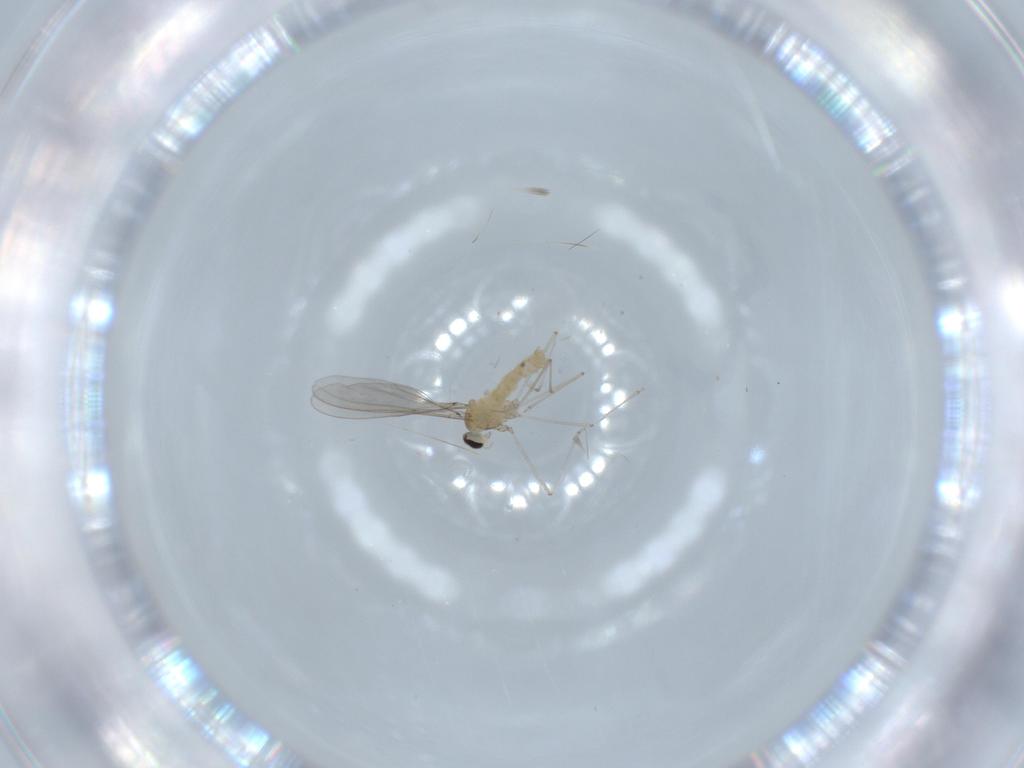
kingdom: Animalia
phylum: Arthropoda
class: Insecta
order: Diptera
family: Cecidomyiidae
